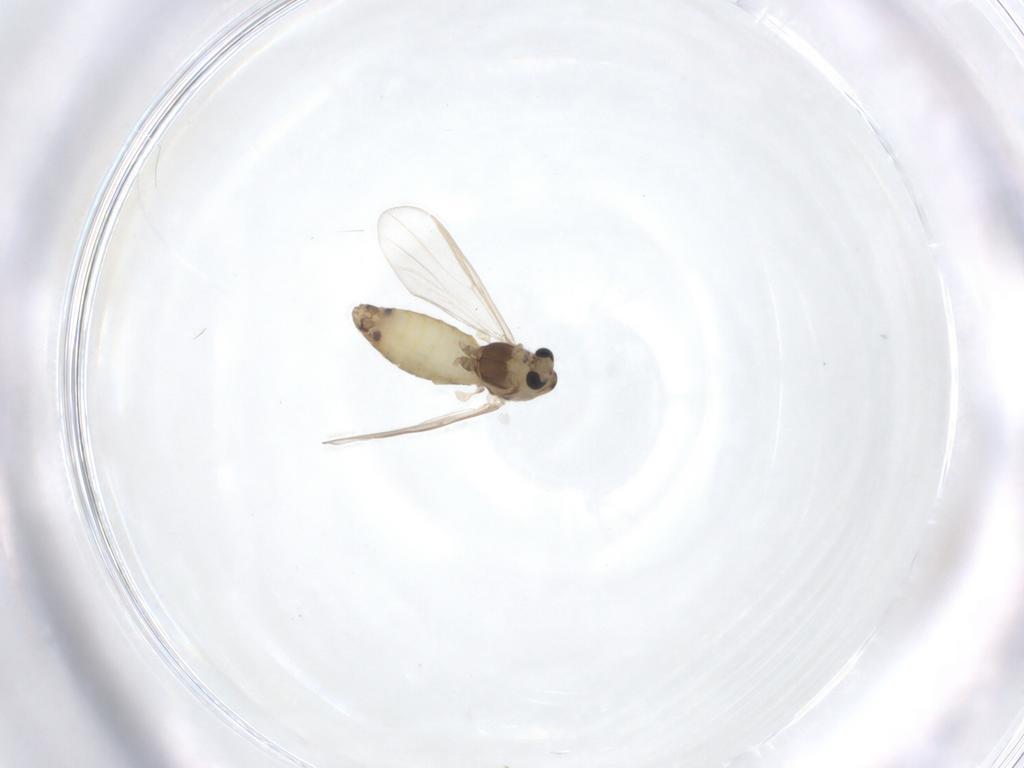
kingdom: Animalia
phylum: Arthropoda
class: Insecta
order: Diptera
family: Chironomidae
